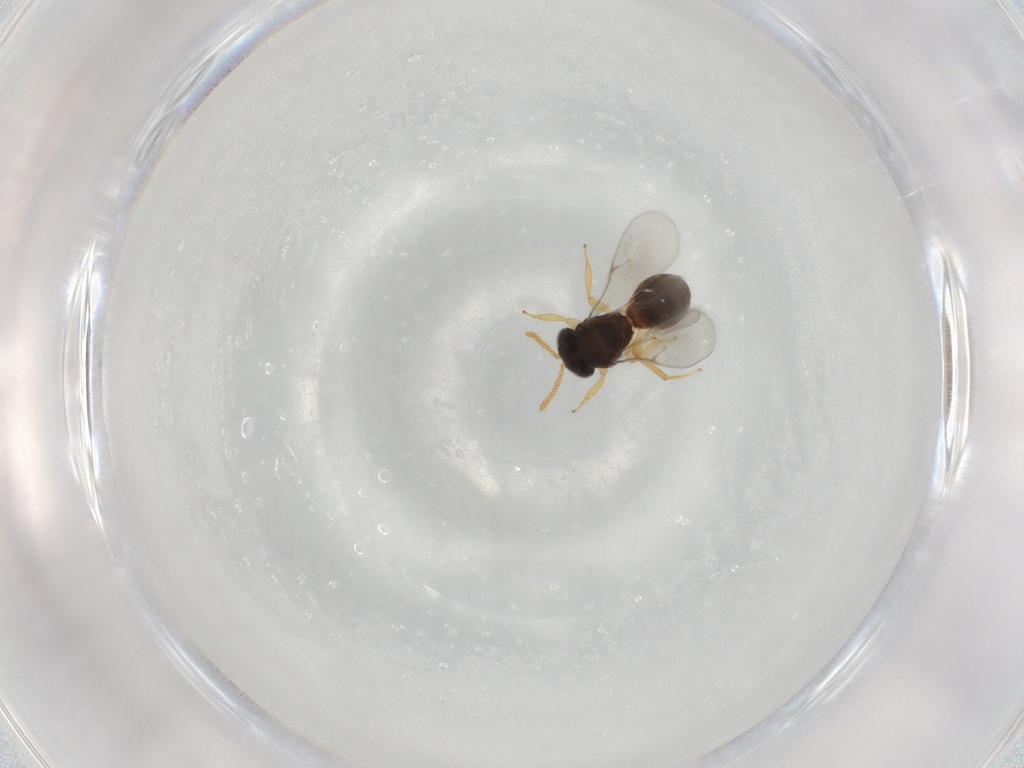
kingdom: Animalia
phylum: Arthropoda
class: Insecta
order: Hymenoptera
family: Scelionidae
